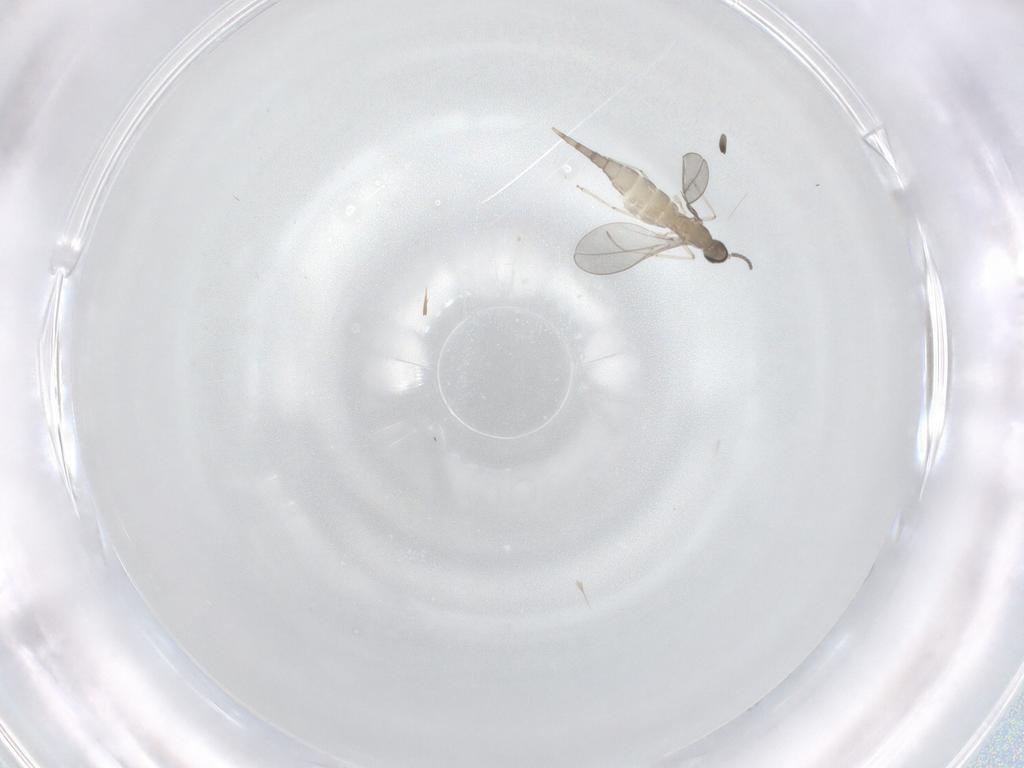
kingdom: Animalia
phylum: Arthropoda
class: Insecta
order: Diptera
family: Cecidomyiidae
